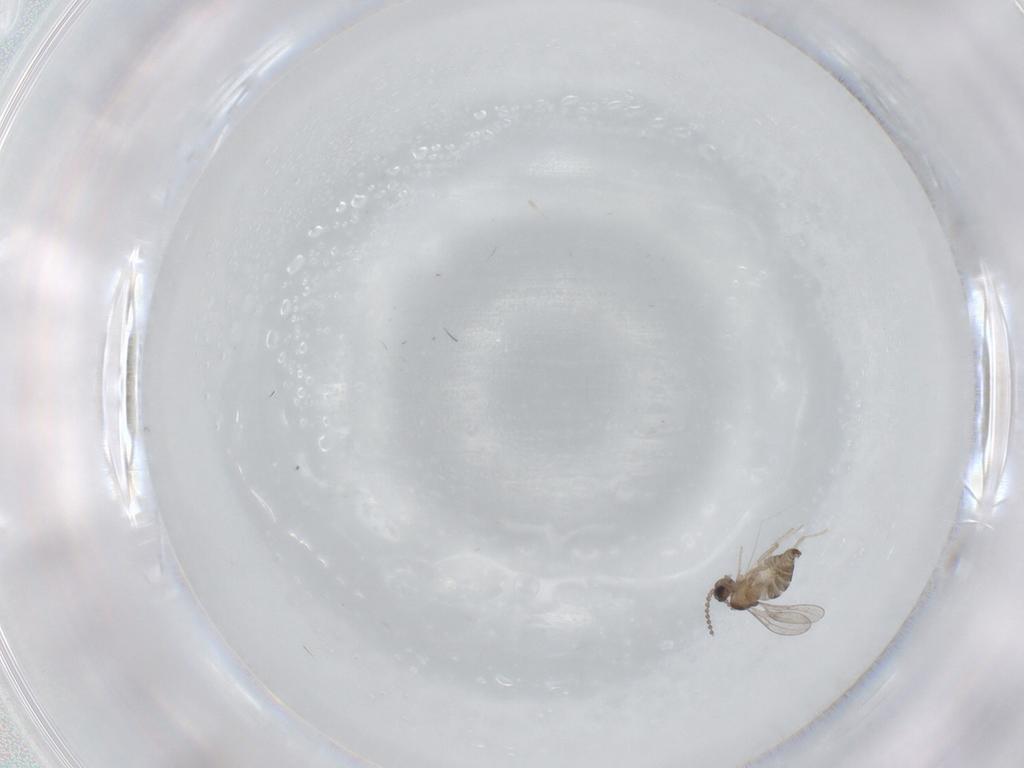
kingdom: Animalia
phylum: Arthropoda
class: Insecta
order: Diptera
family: Cecidomyiidae
